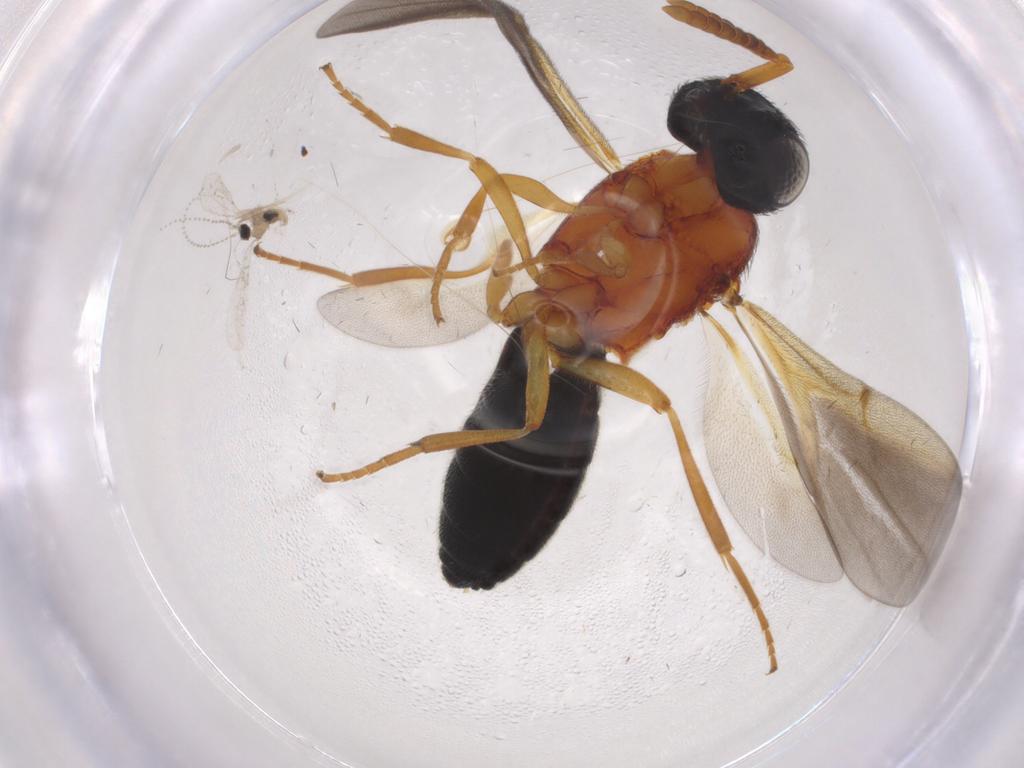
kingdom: Animalia
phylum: Arthropoda
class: Insecta
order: Hymenoptera
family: Scelionidae
